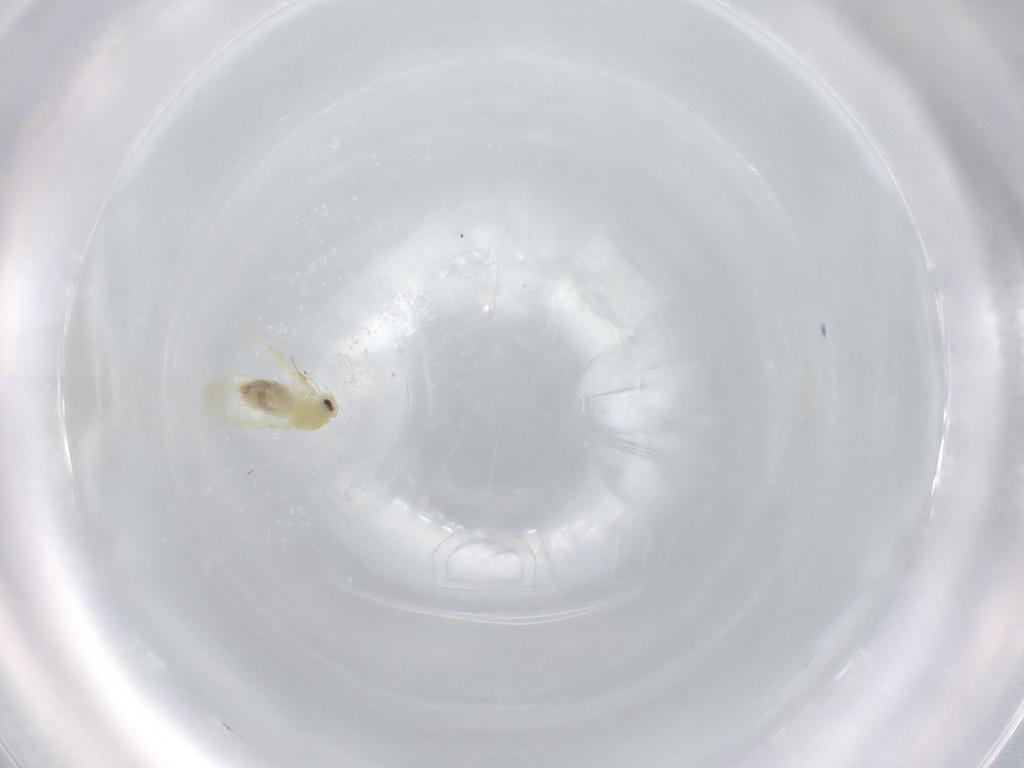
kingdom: Animalia
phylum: Arthropoda
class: Insecta
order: Hemiptera
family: Aleyrodidae
